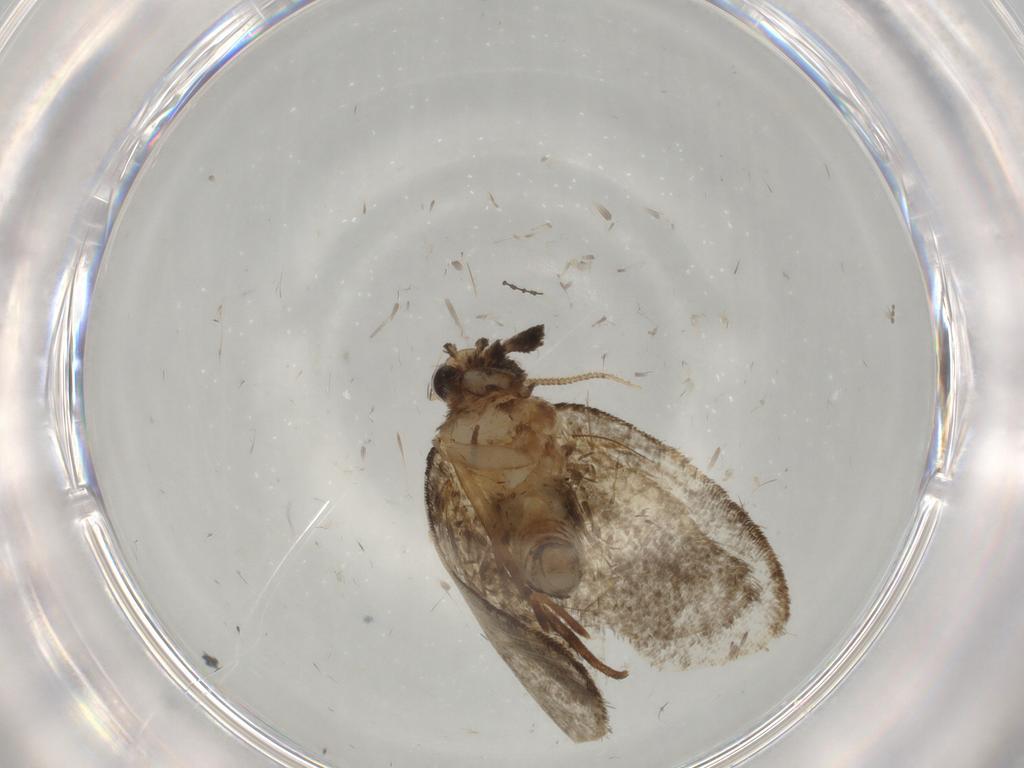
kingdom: Animalia
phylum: Arthropoda
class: Insecta
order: Lepidoptera
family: Psychidae
